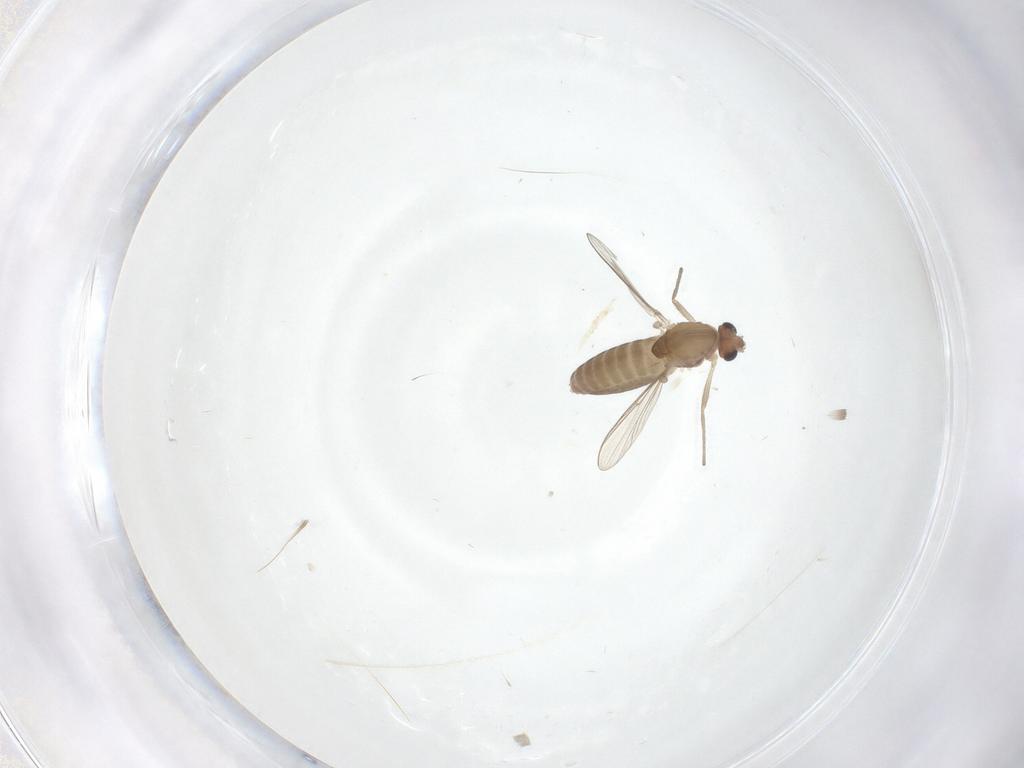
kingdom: Animalia
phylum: Arthropoda
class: Insecta
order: Diptera
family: Chironomidae
